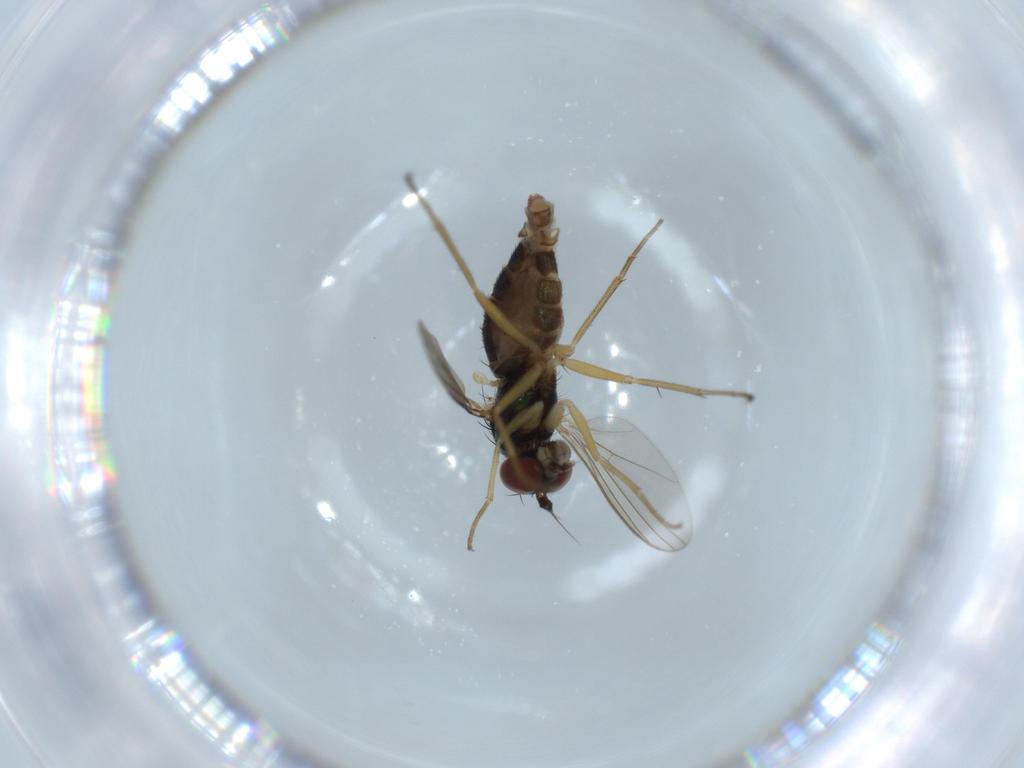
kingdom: Animalia
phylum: Arthropoda
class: Insecta
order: Diptera
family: Dolichopodidae
